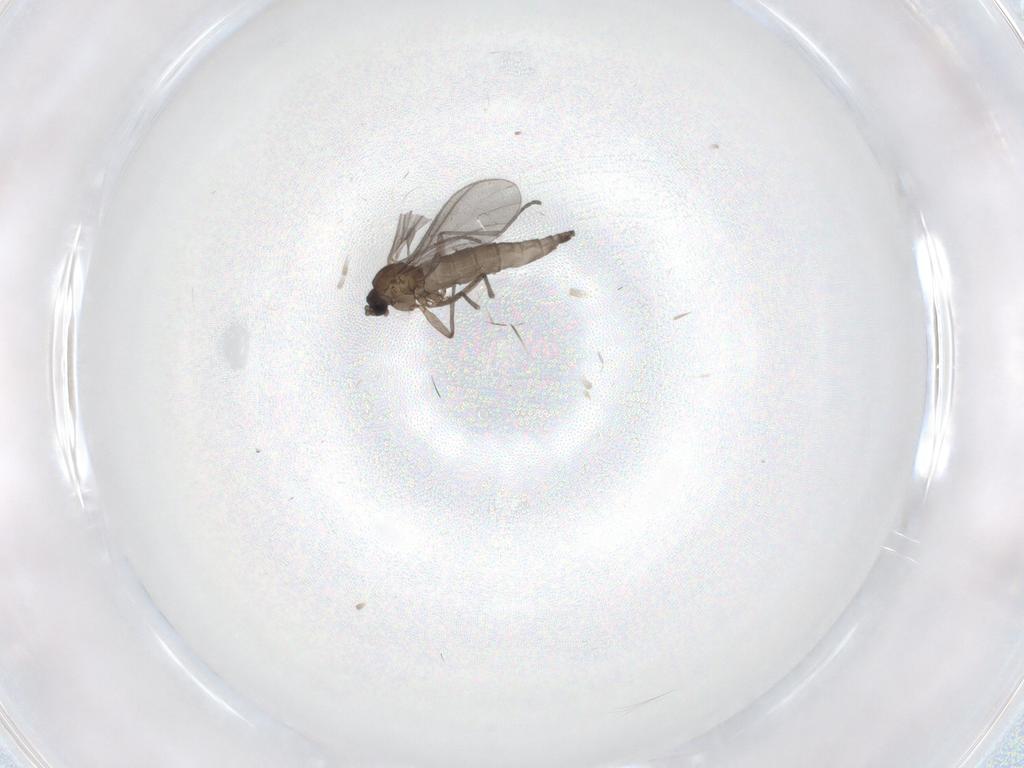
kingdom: Animalia
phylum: Arthropoda
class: Insecta
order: Diptera
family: Sciaridae
